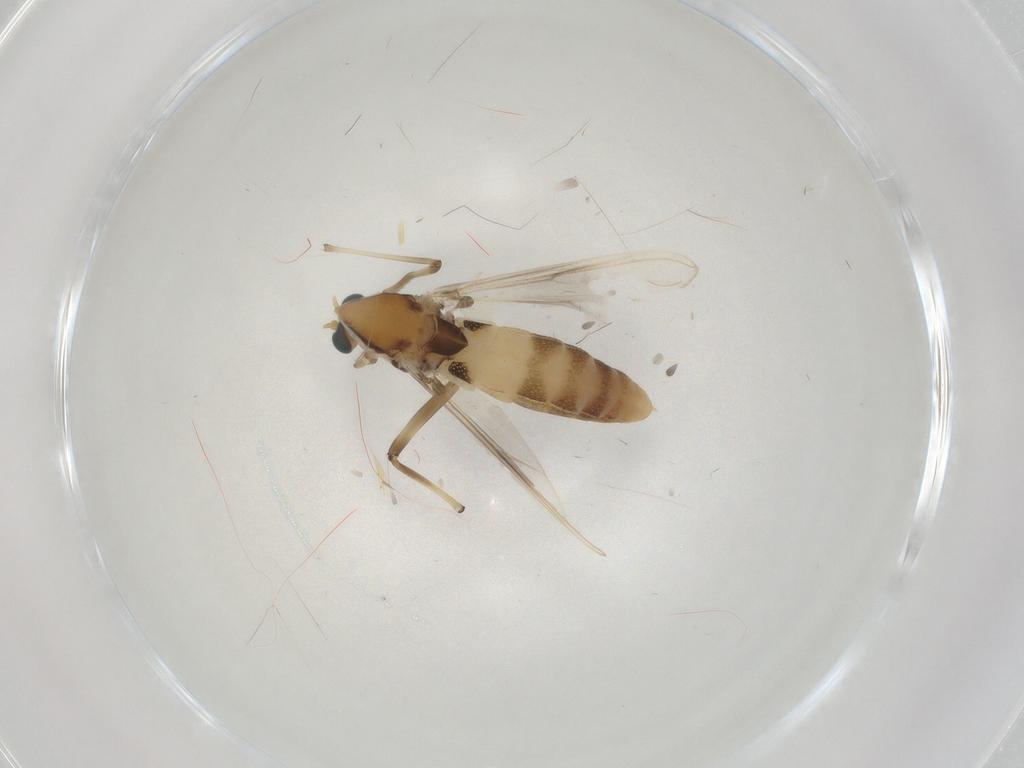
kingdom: Animalia
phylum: Arthropoda
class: Insecta
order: Diptera
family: Chironomidae
